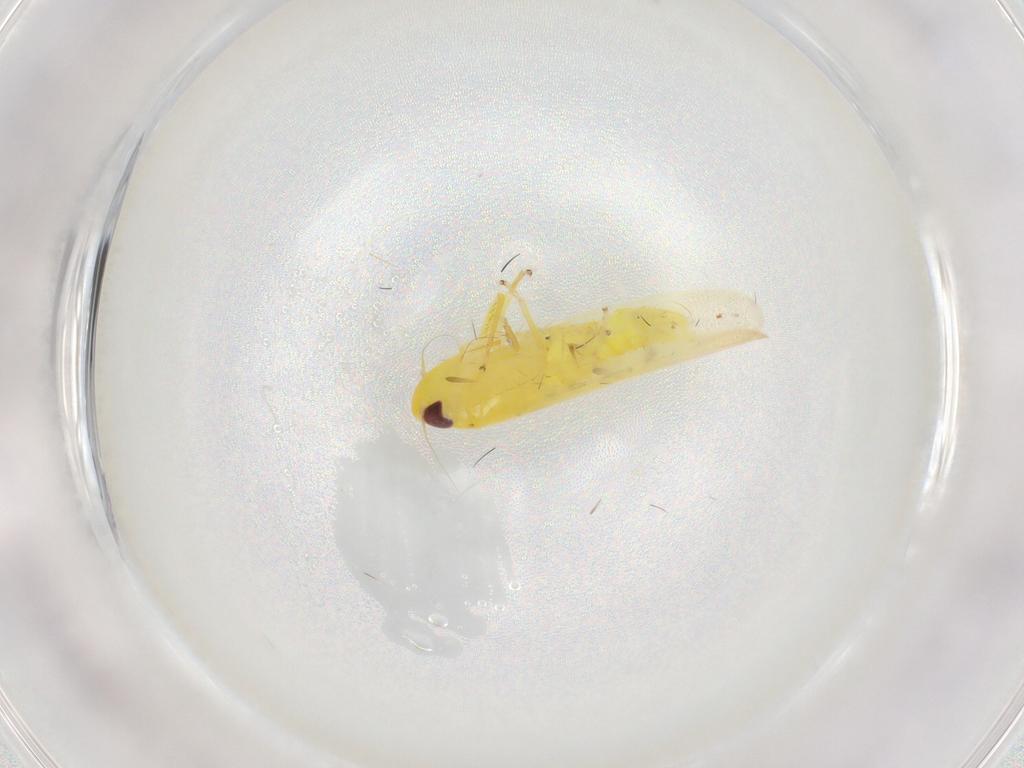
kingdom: Animalia
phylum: Arthropoda
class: Insecta
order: Hemiptera
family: Cicadellidae
